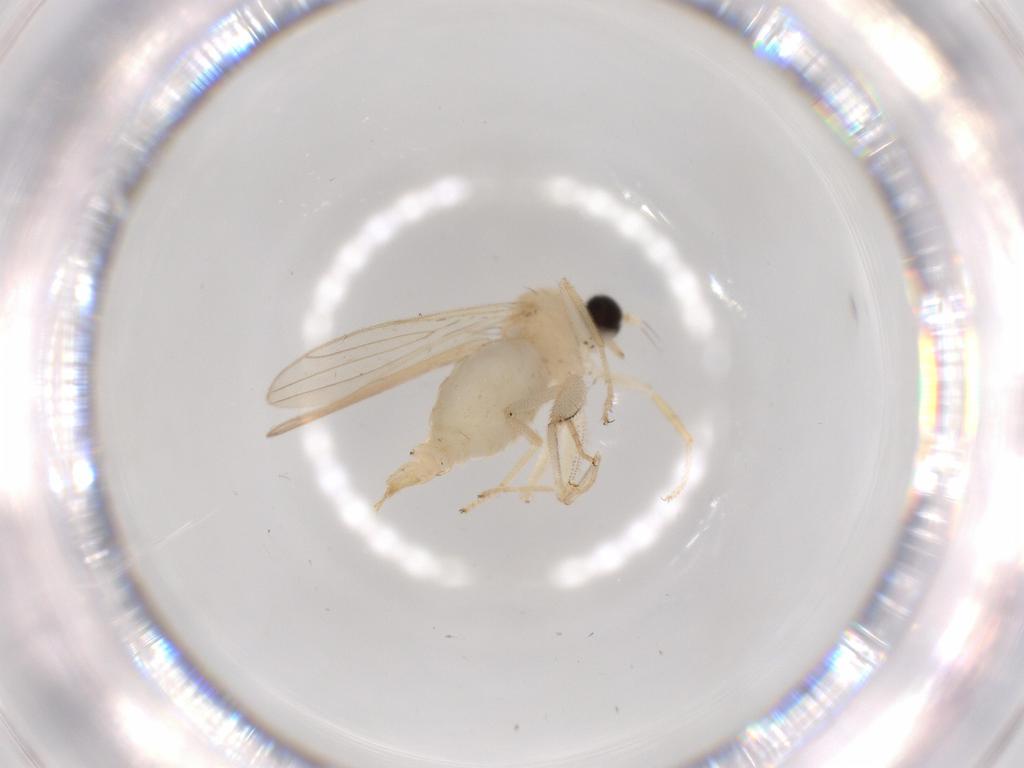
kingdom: Animalia
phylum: Arthropoda
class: Insecta
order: Diptera
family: Hybotidae
